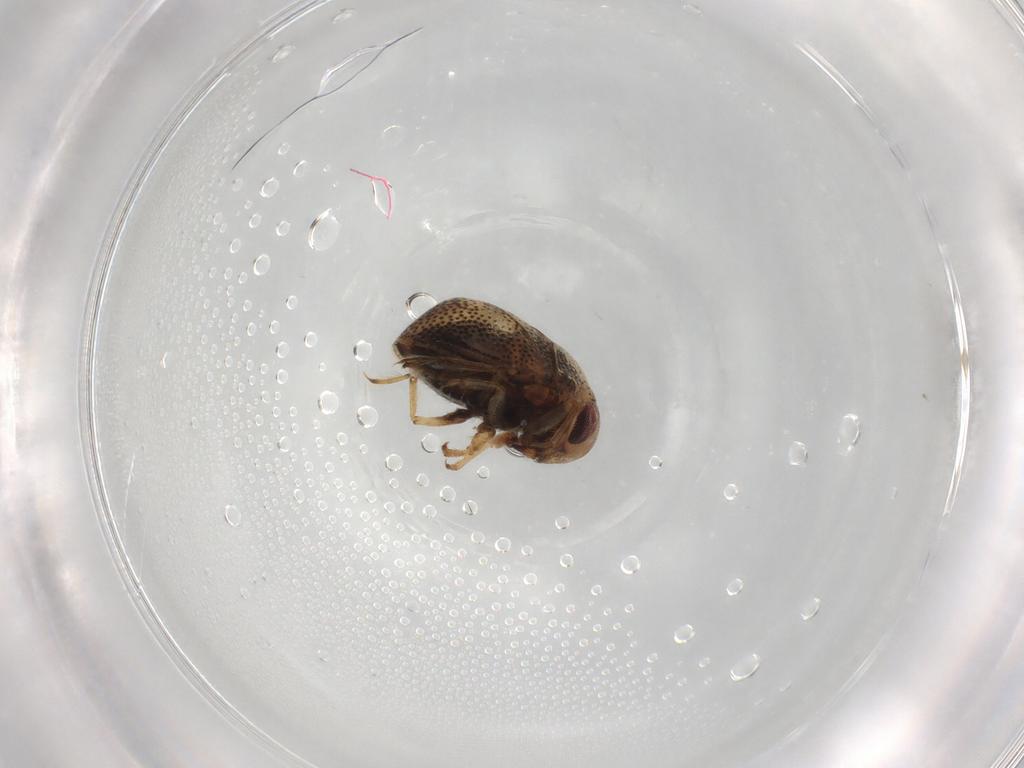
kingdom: Animalia
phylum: Arthropoda
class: Insecta
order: Hemiptera
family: Pleidae
